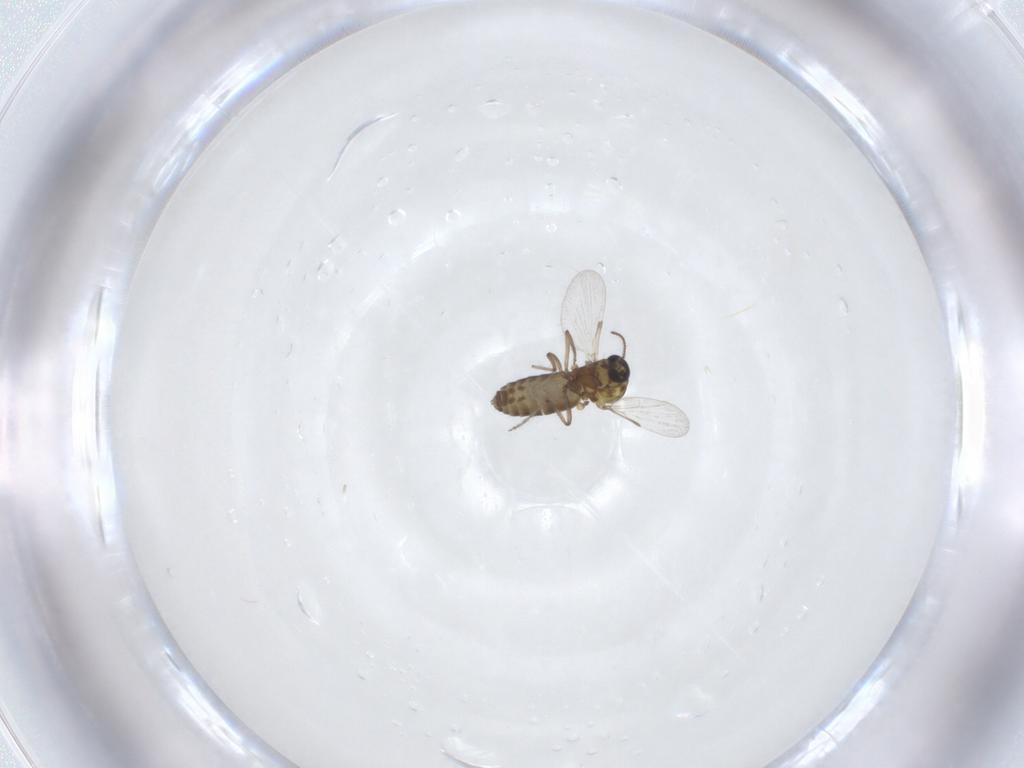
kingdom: Animalia
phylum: Arthropoda
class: Insecta
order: Diptera
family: Ceratopogonidae
